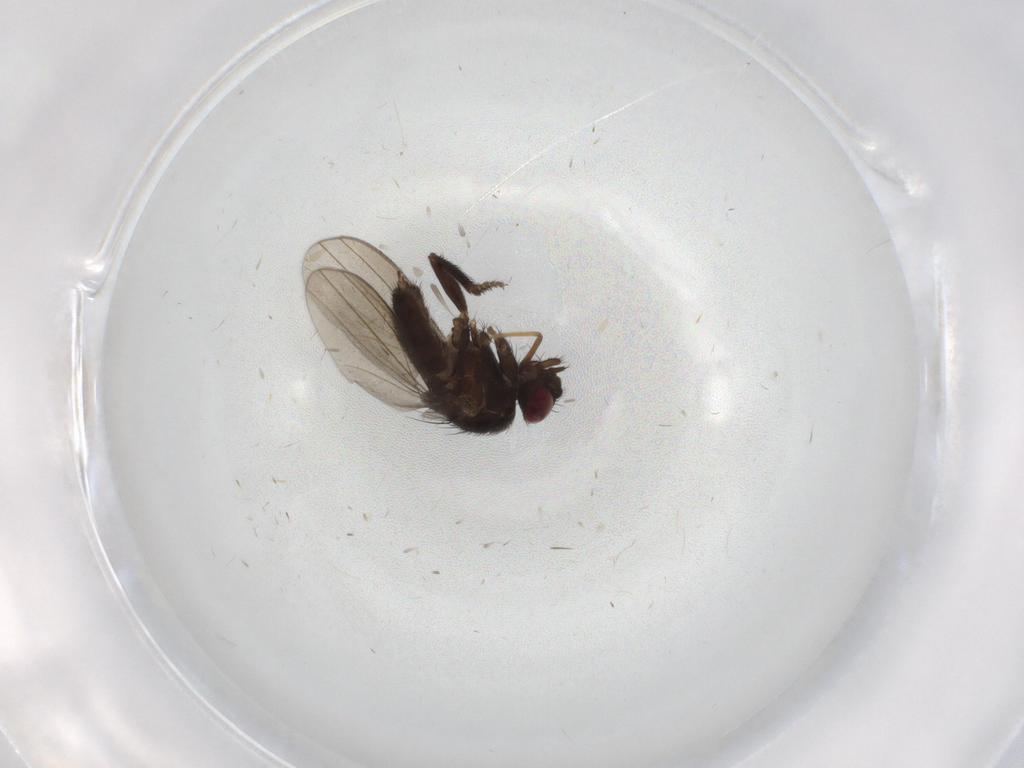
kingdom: Animalia
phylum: Arthropoda
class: Insecta
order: Diptera
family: Milichiidae
